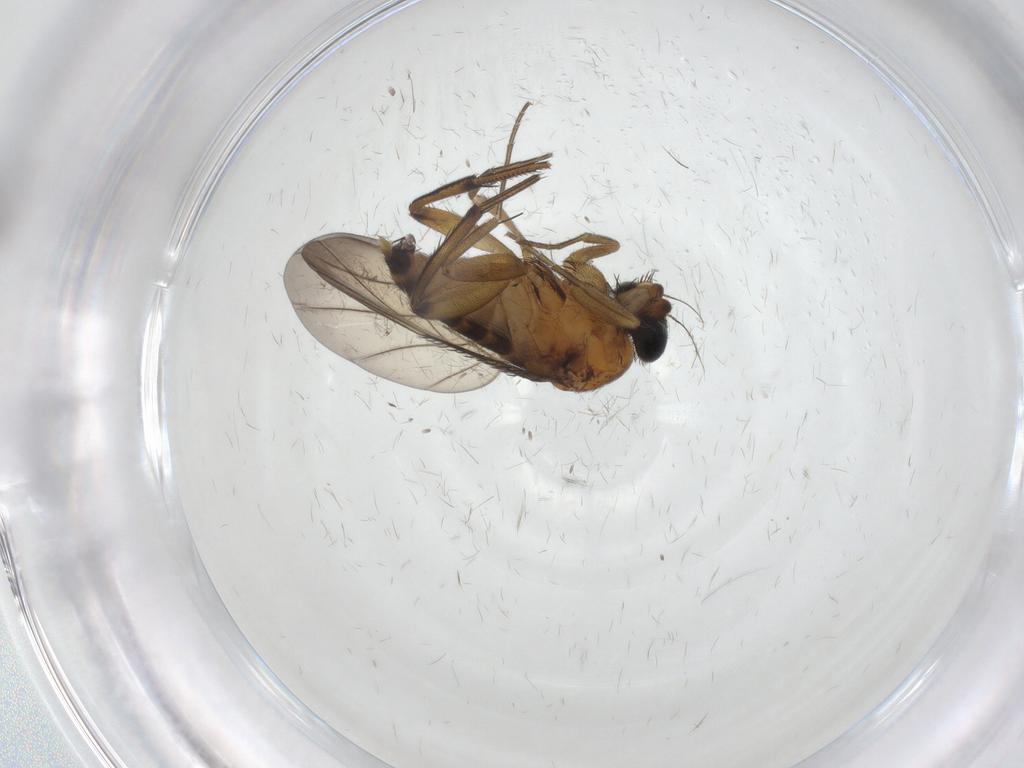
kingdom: Animalia
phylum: Arthropoda
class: Insecta
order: Diptera
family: Sciaridae
